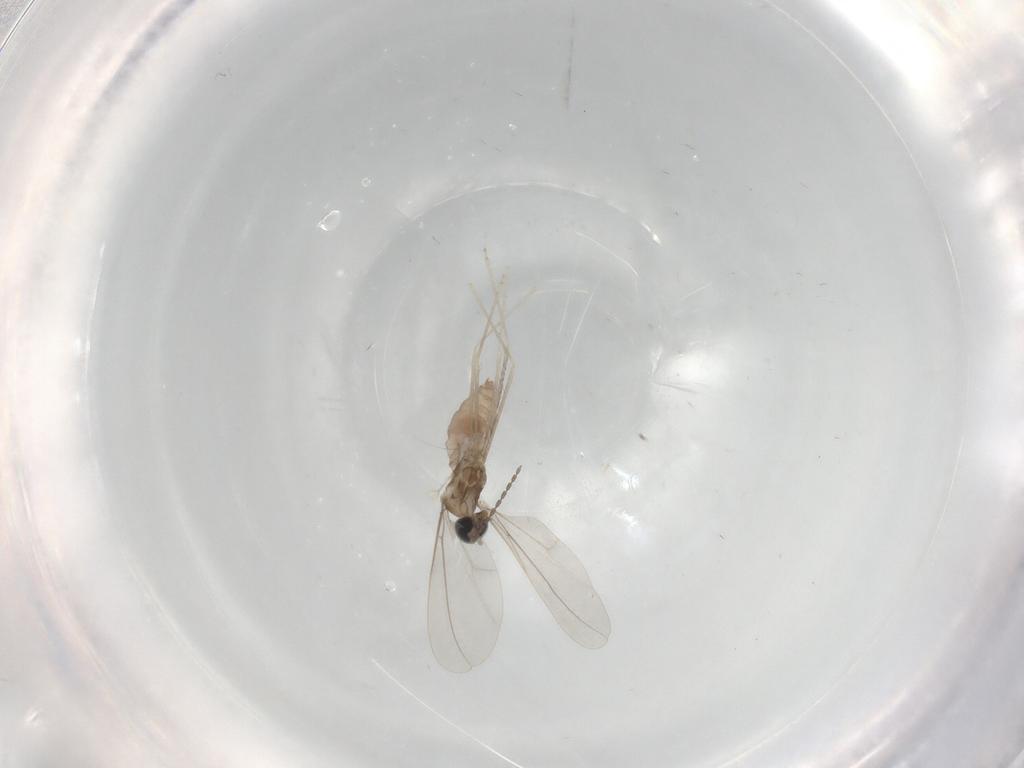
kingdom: Animalia
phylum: Arthropoda
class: Insecta
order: Diptera
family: Cecidomyiidae
